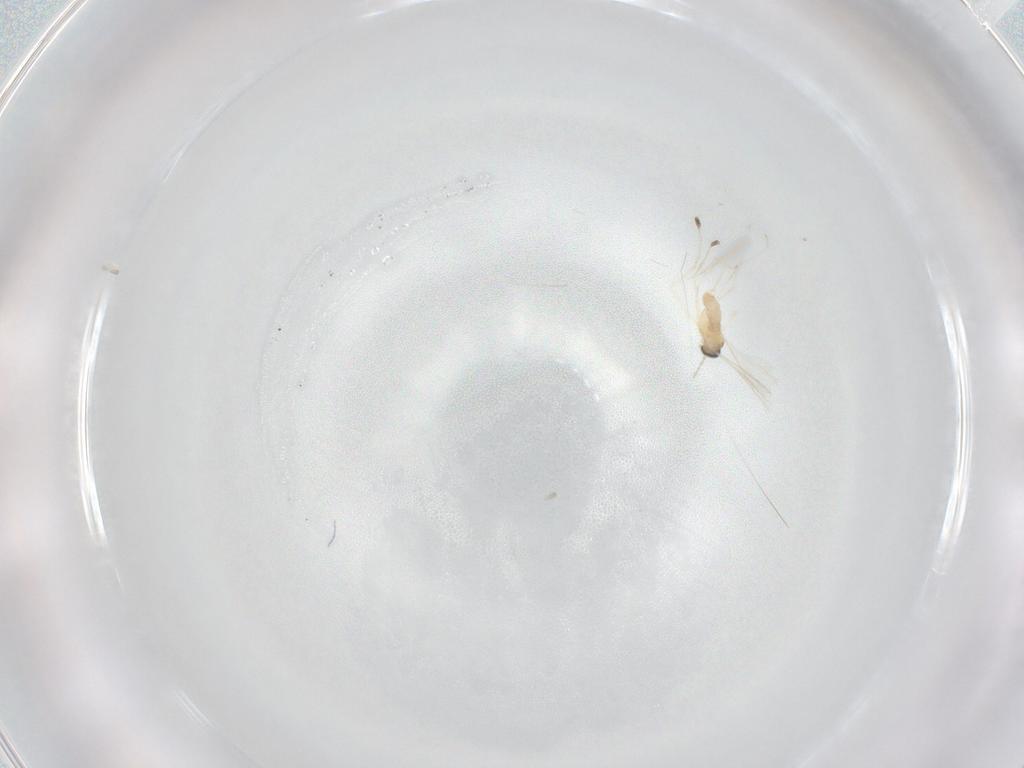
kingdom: Animalia
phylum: Arthropoda
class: Insecta
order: Diptera
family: Cecidomyiidae
